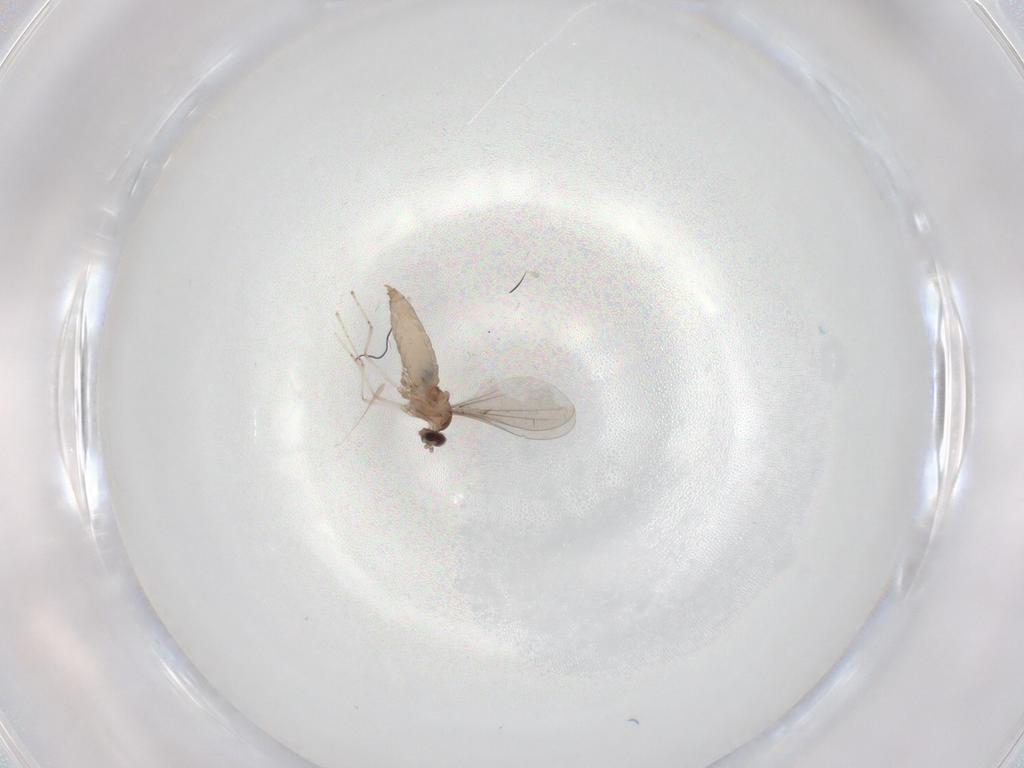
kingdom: Animalia
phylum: Arthropoda
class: Insecta
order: Diptera
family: Cecidomyiidae
